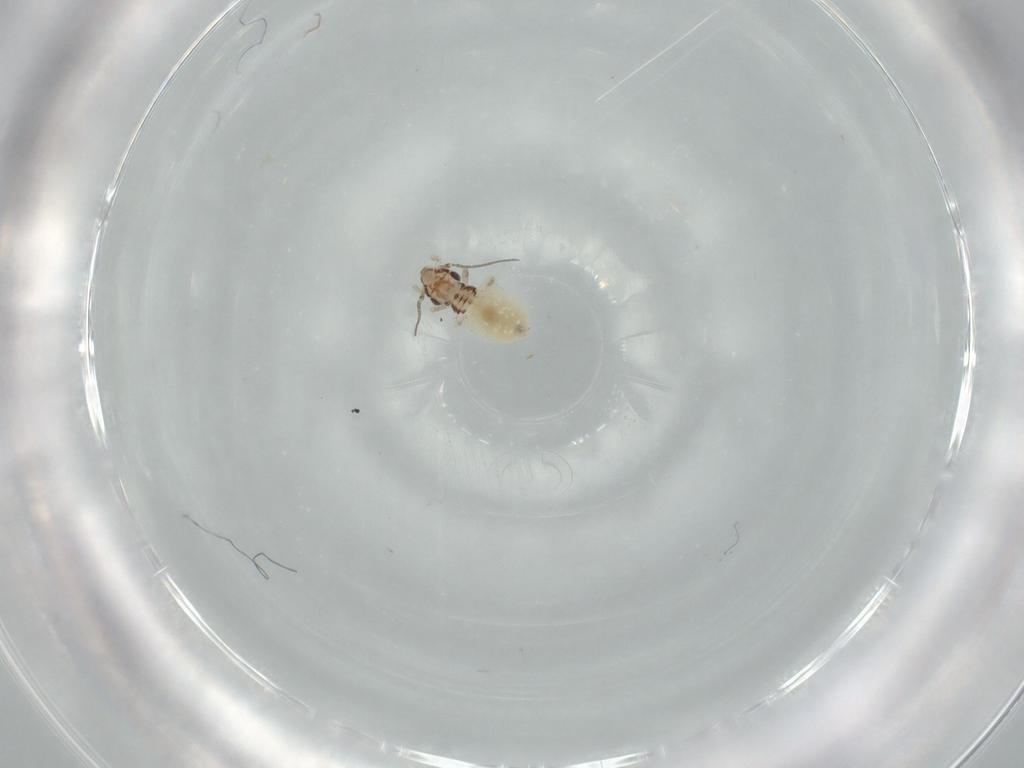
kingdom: Animalia
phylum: Arthropoda
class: Insecta
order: Psocodea
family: Lepidopsocidae
